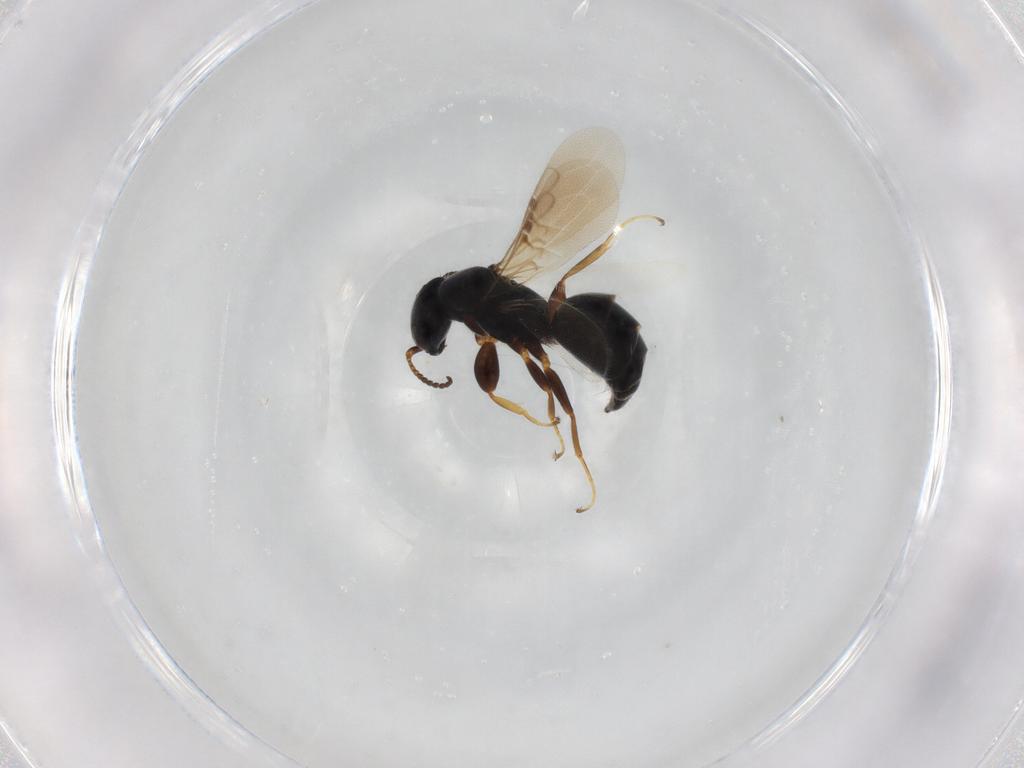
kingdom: Animalia
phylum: Arthropoda
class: Insecta
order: Hymenoptera
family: Bethylidae
